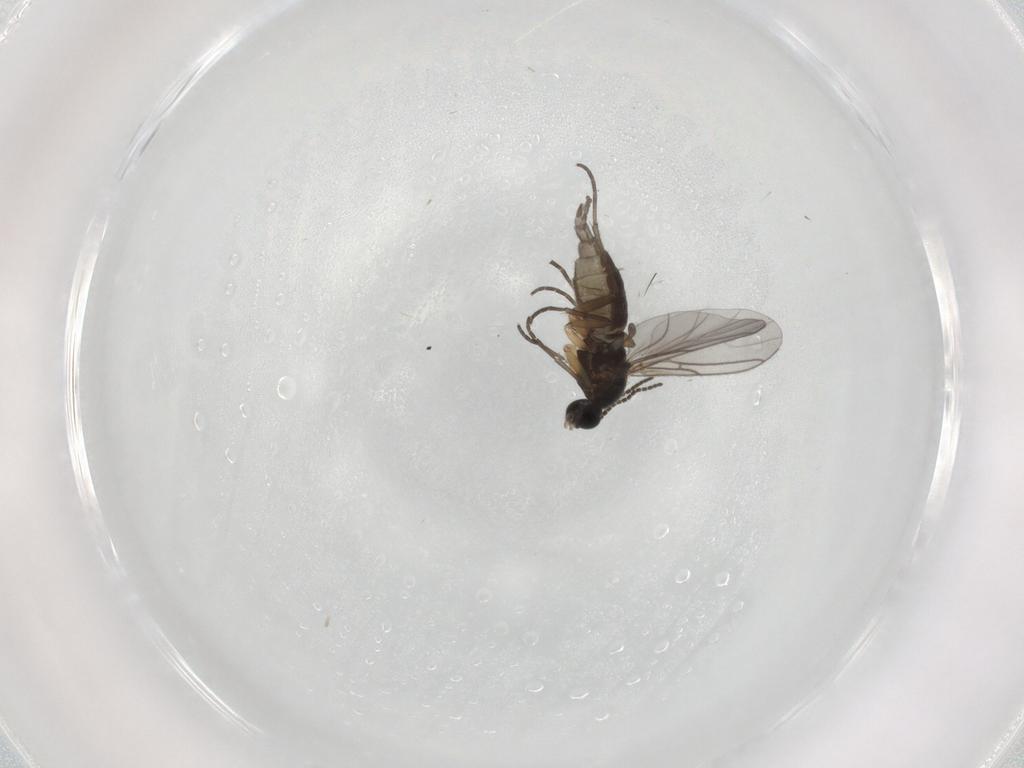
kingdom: Animalia
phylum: Arthropoda
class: Insecta
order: Diptera
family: Sciaridae
